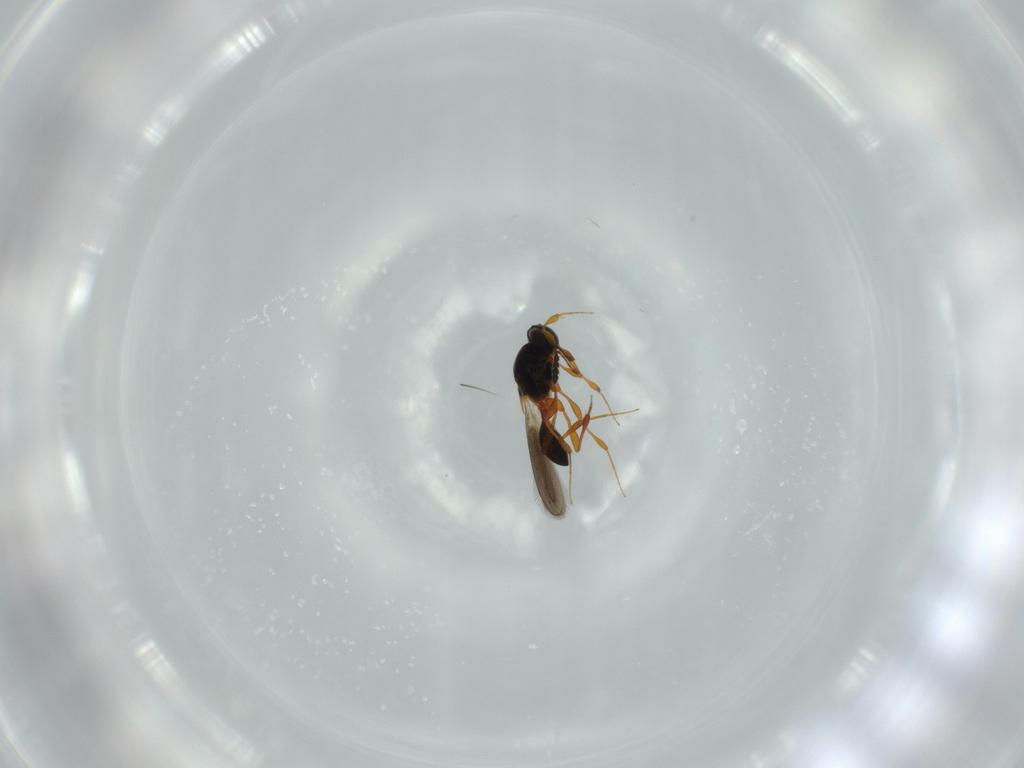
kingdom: Animalia
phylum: Arthropoda
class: Insecta
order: Hymenoptera
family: Platygastridae
